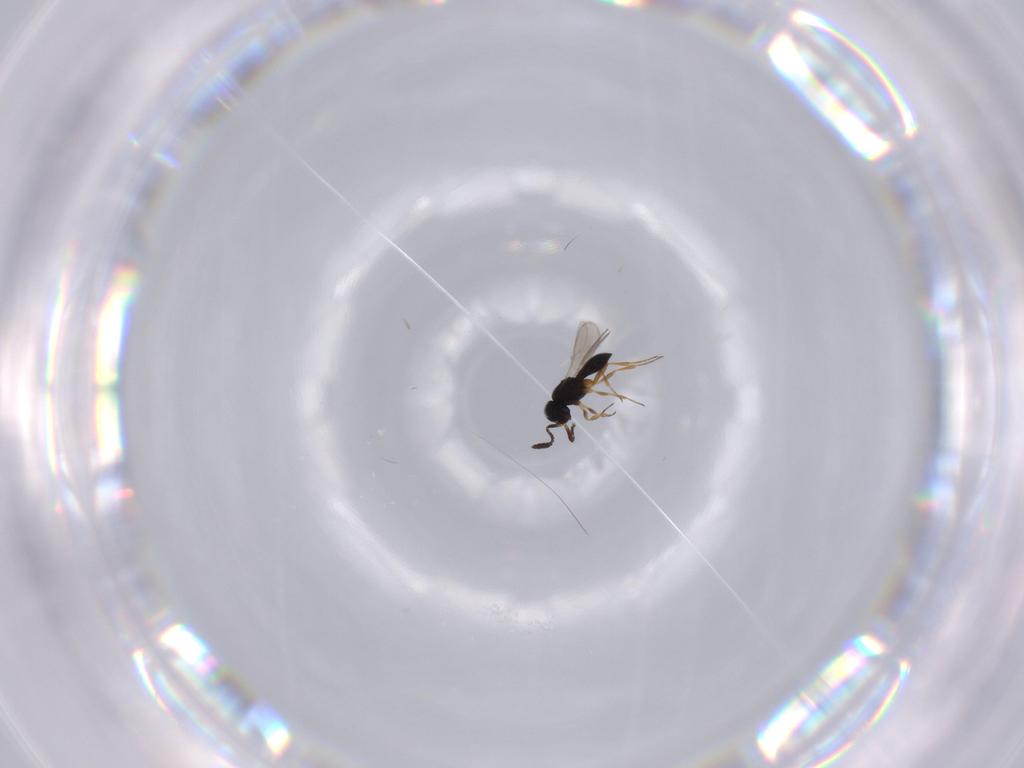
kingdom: Animalia
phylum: Arthropoda
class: Insecta
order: Hymenoptera
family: Scelionidae
